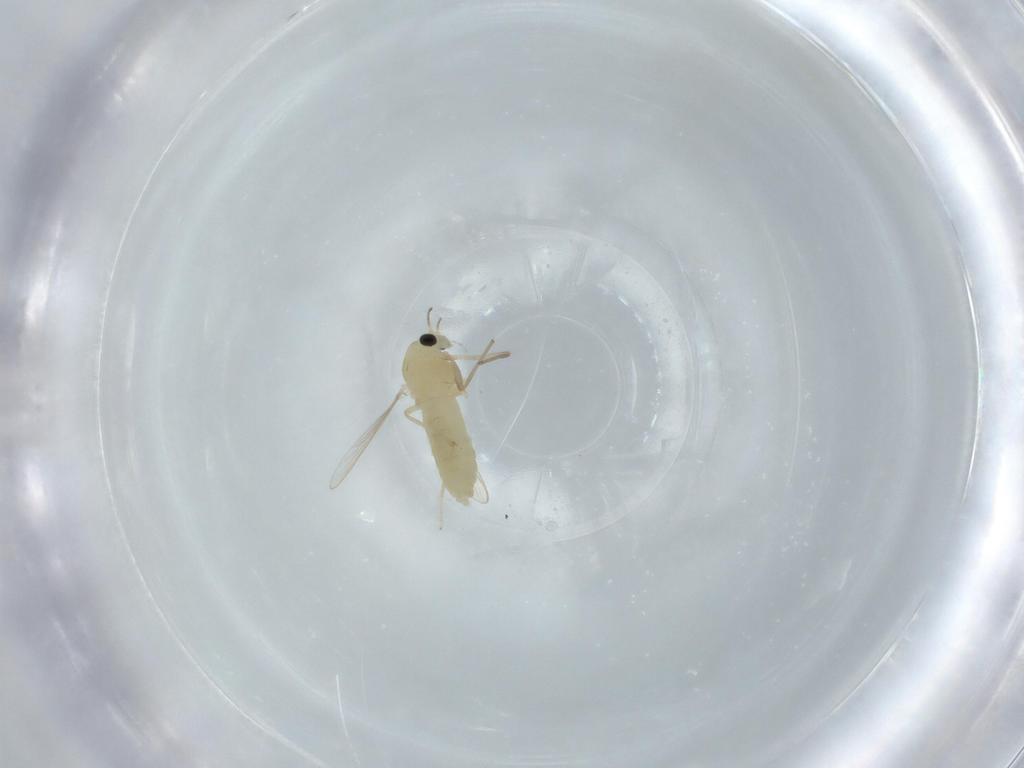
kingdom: Animalia
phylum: Arthropoda
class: Insecta
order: Diptera
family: Chironomidae
